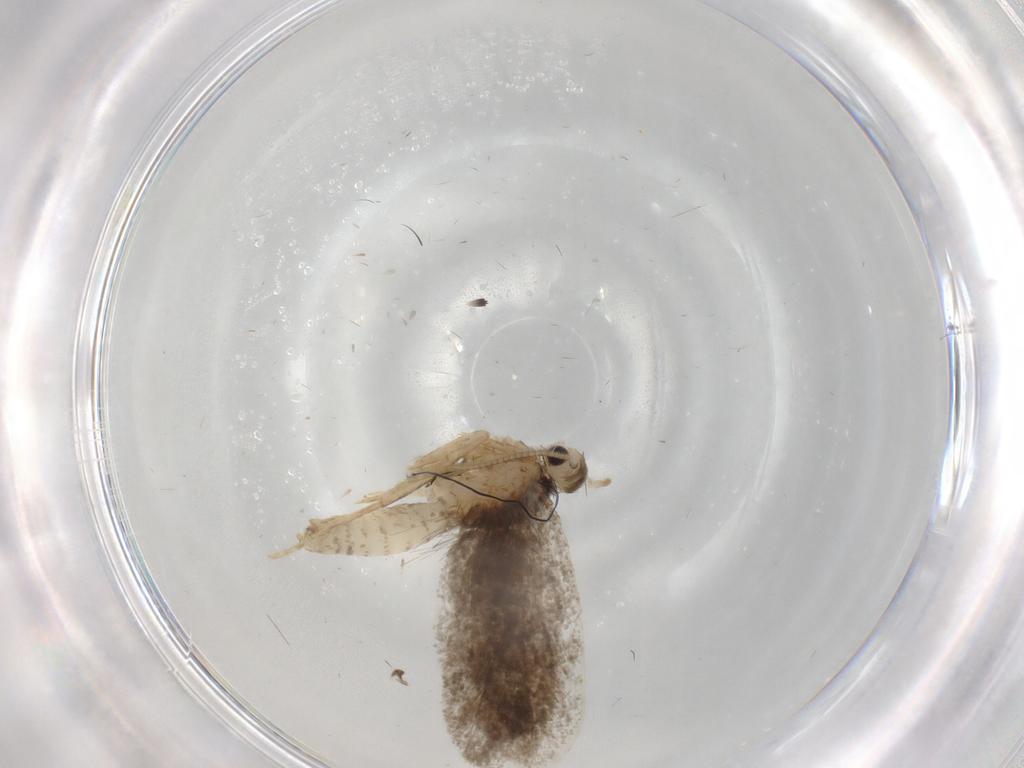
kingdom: Animalia
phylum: Arthropoda
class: Insecta
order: Lepidoptera
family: Psychidae
